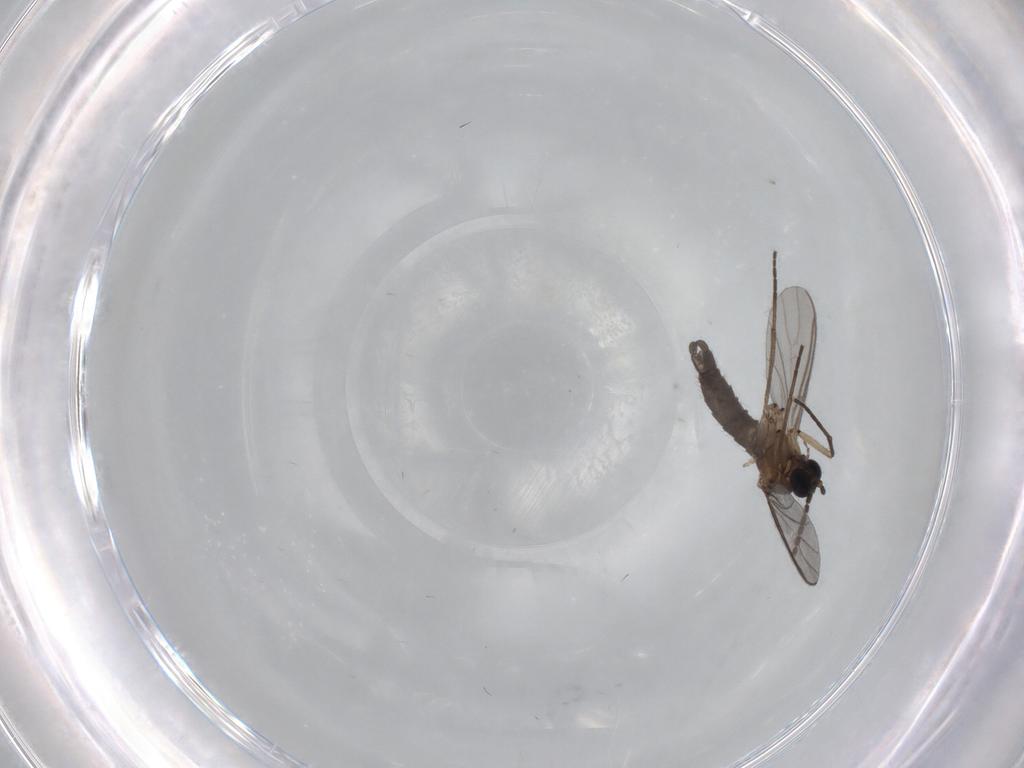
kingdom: Animalia
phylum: Arthropoda
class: Insecta
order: Diptera
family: Sciaridae
